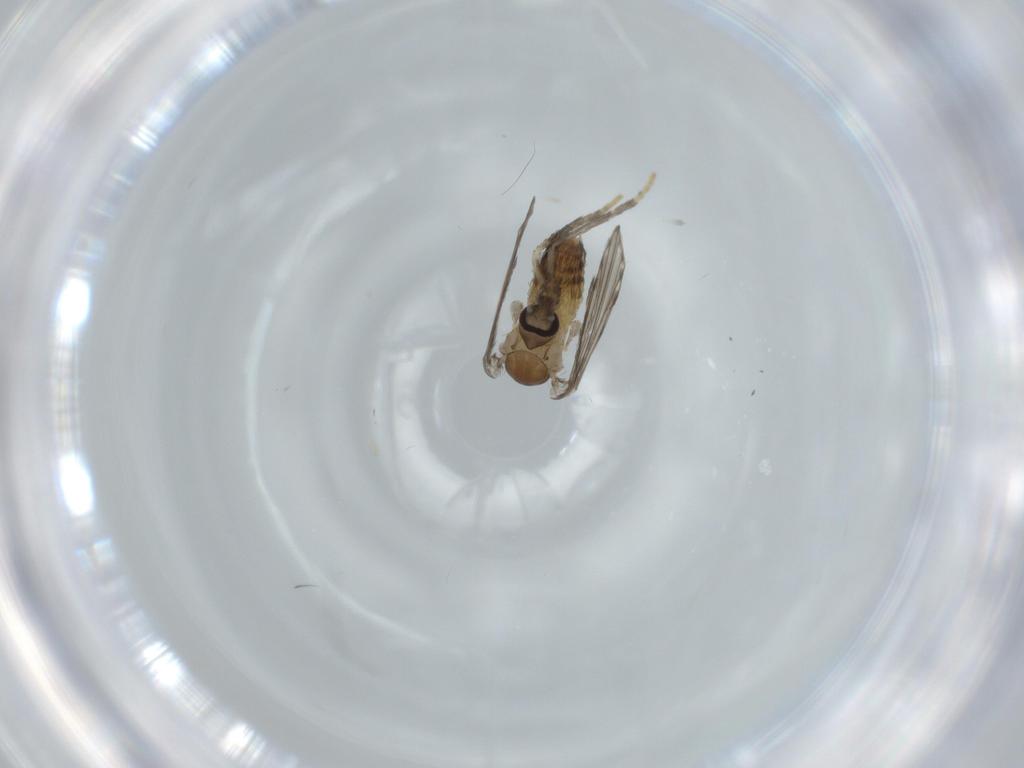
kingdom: Animalia
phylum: Arthropoda
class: Insecta
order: Diptera
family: Psychodidae
